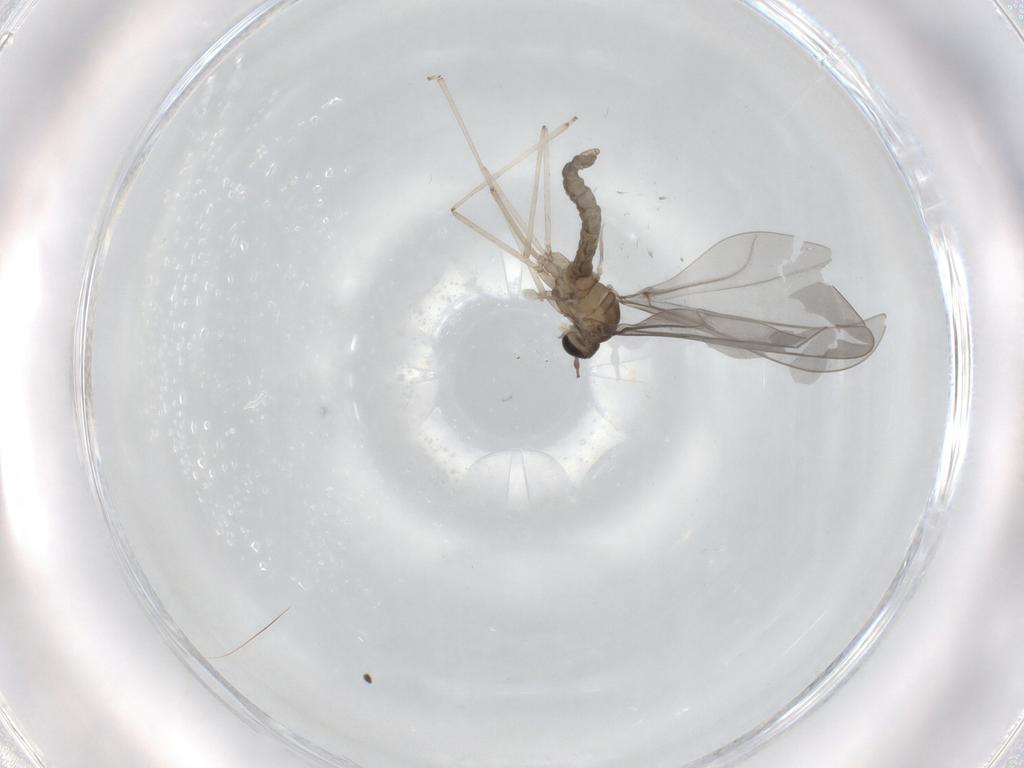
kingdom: Animalia
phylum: Arthropoda
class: Insecta
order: Diptera
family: Cecidomyiidae
